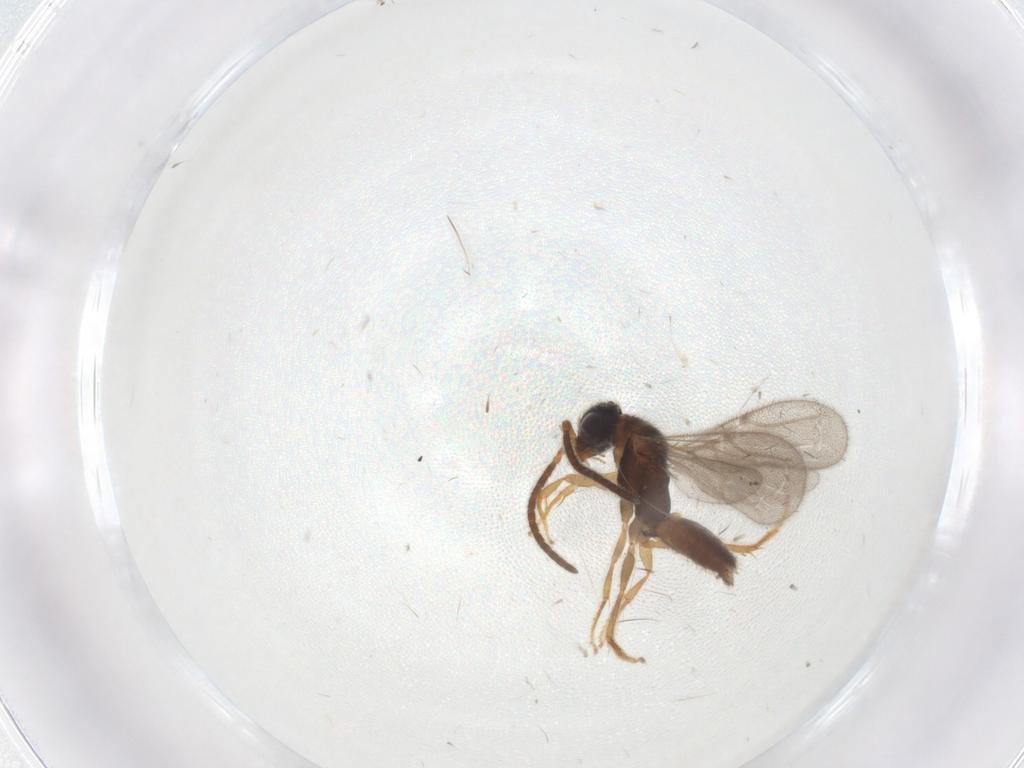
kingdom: Animalia
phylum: Arthropoda
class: Insecta
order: Hymenoptera
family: Bethylidae
